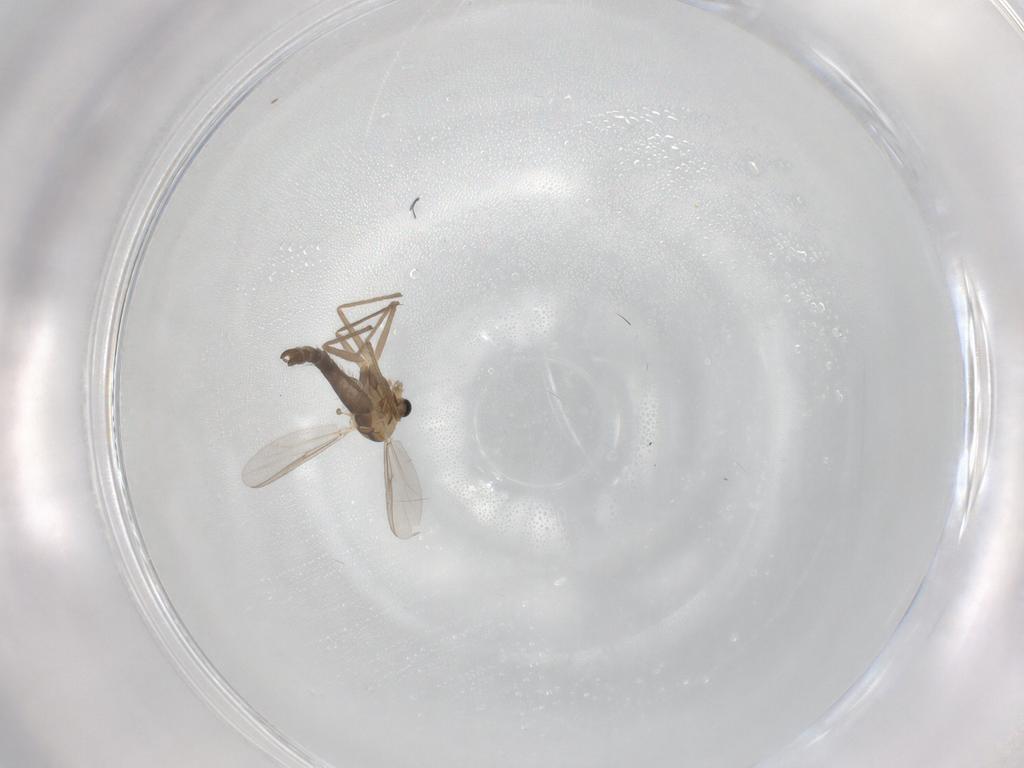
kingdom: Animalia
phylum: Arthropoda
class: Insecta
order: Diptera
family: Chironomidae
